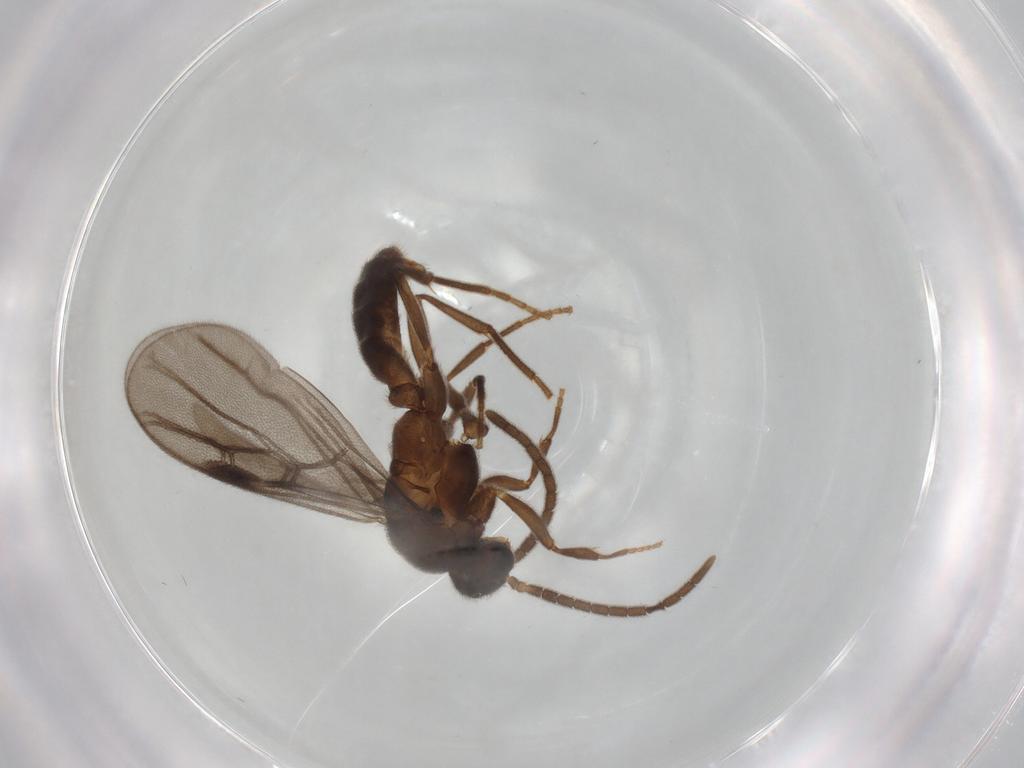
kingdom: Animalia
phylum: Arthropoda
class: Insecta
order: Hymenoptera
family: Formicidae
